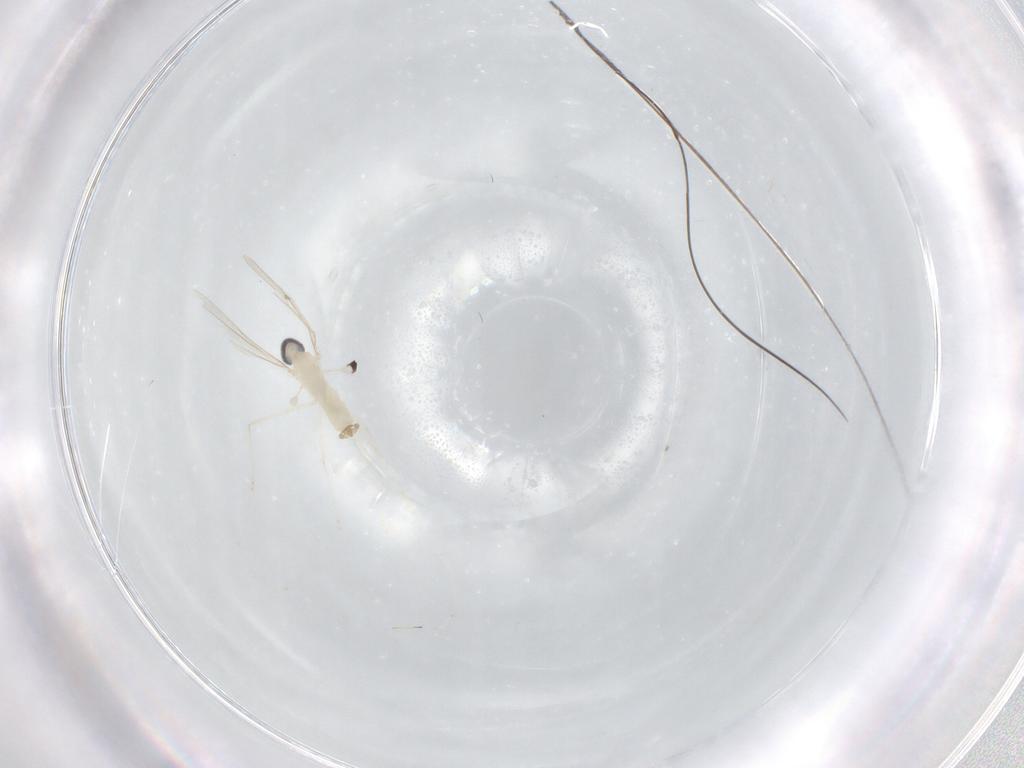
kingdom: Animalia
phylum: Arthropoda
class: Insecta
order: Diptera
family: Cecidomyiidae
